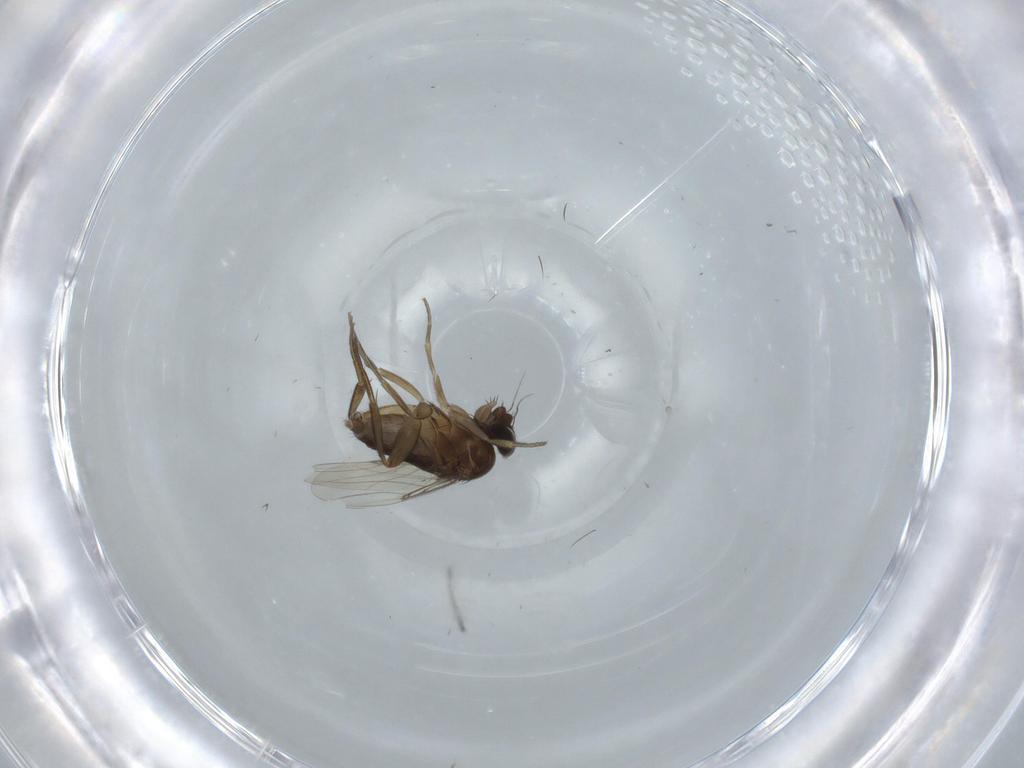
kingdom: Animalia
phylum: Arthropoda
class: Insecta
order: Diptera
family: Phoridae
